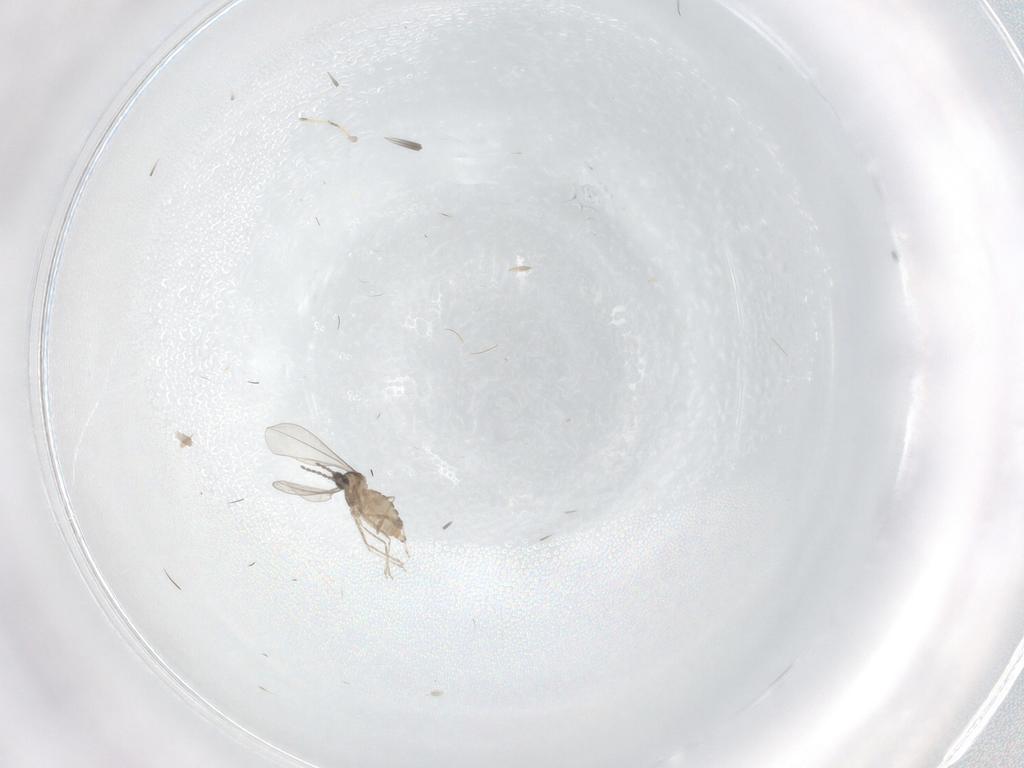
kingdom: Animalia
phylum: Arthropoda
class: Insecta
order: Diptera
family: Cecidomyiidae
